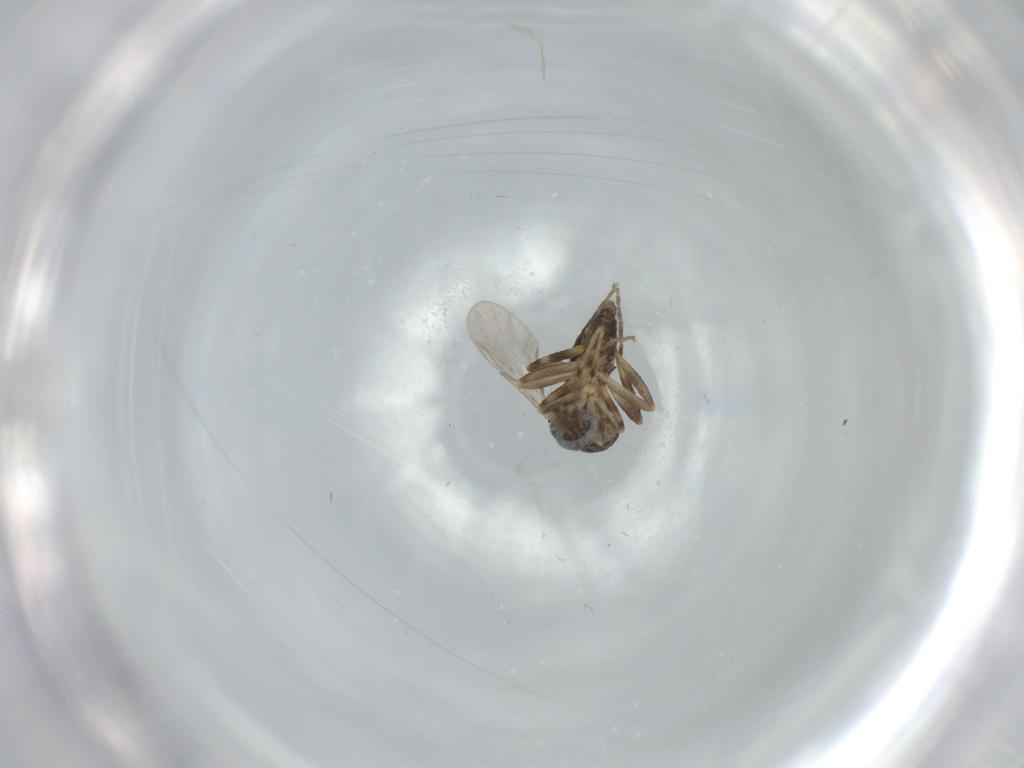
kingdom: Animalia
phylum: Arthropoda
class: Insecta
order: Diptera
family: Ceratopogonidae
